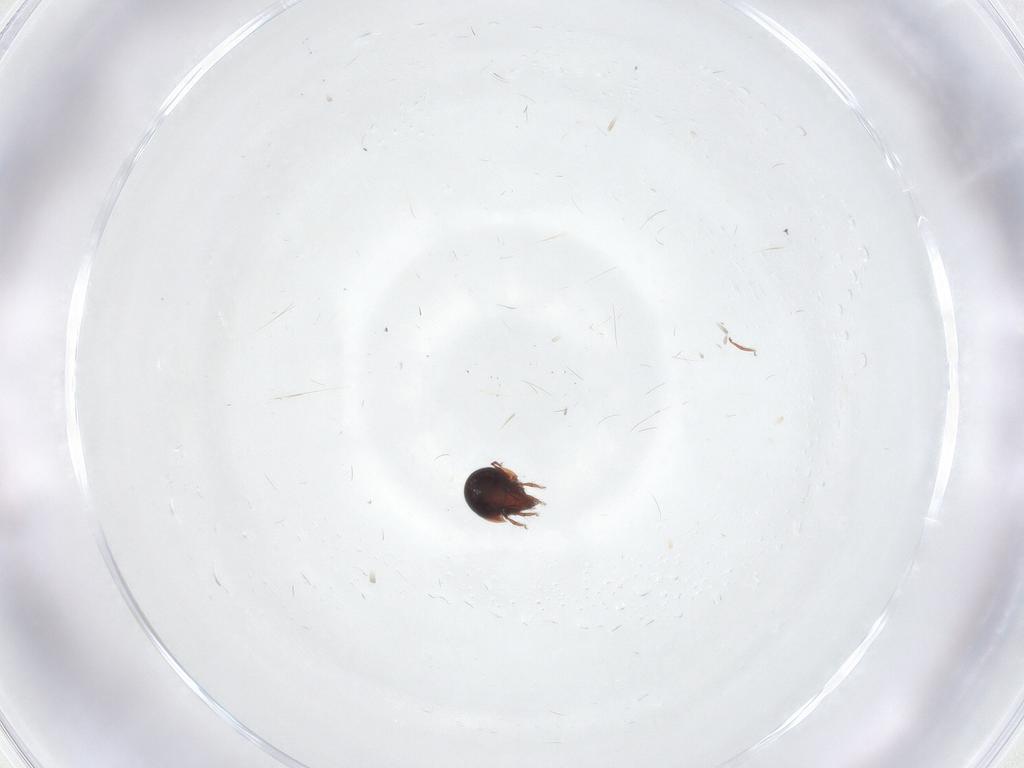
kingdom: Animalia
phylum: Arthropoda
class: Arachnida
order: Sarcoptiformes
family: Ceratozetidae
